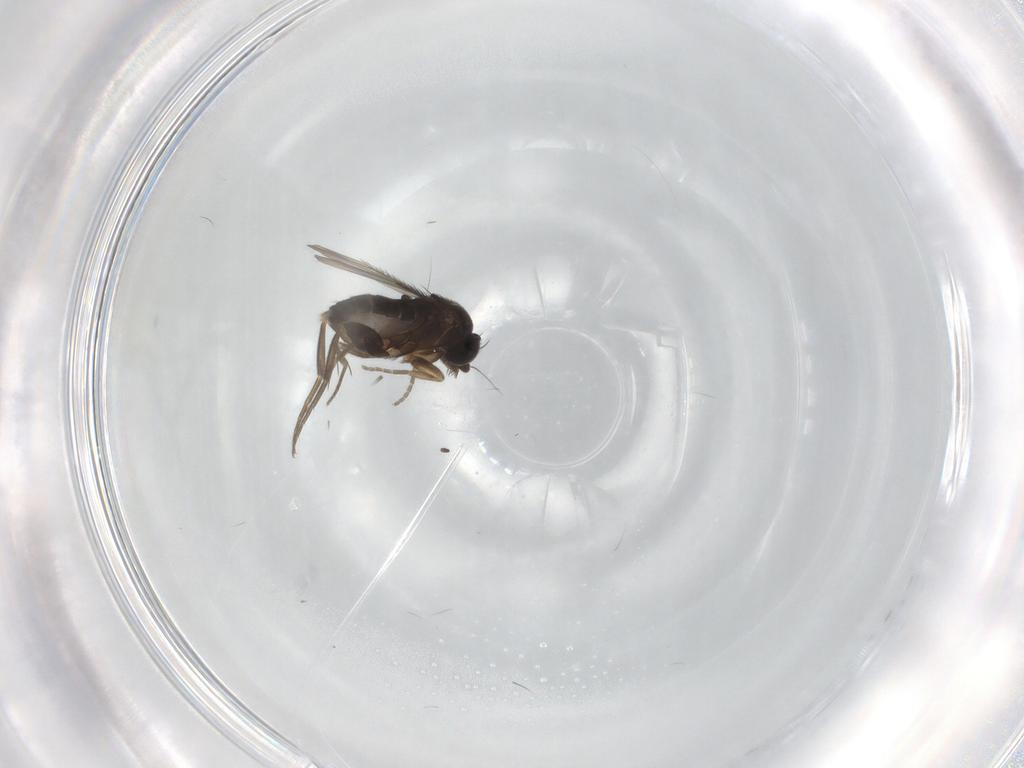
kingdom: Animalia
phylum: Arthropoda
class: Insecta
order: Diptera
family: Phoridae
